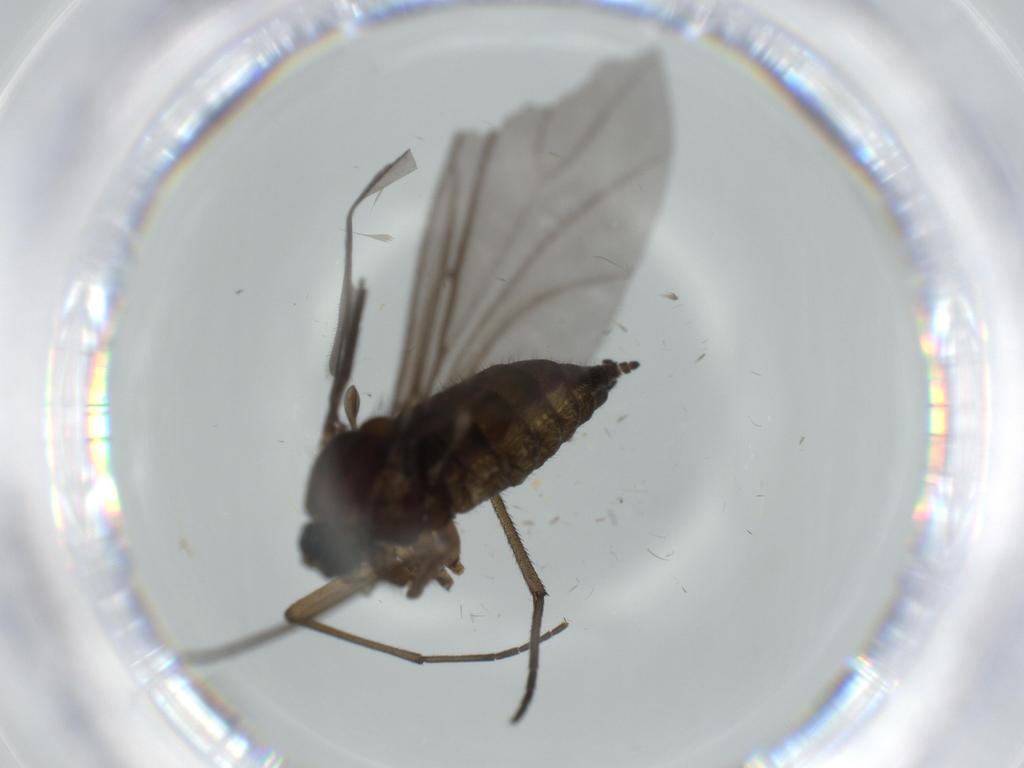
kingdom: Animalia
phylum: Arthropoda
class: Insecta
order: Diptera
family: Sciaridae
